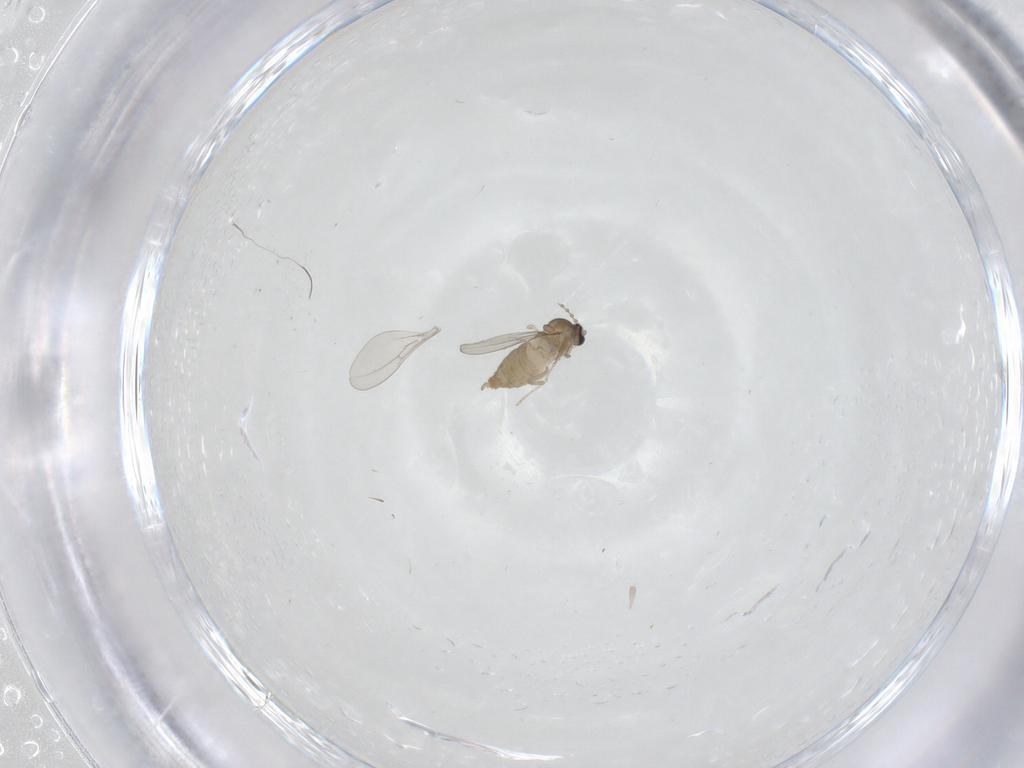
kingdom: Animalia
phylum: Arthropoda
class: Insecta
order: Diptera
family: Cecidomyiidae
